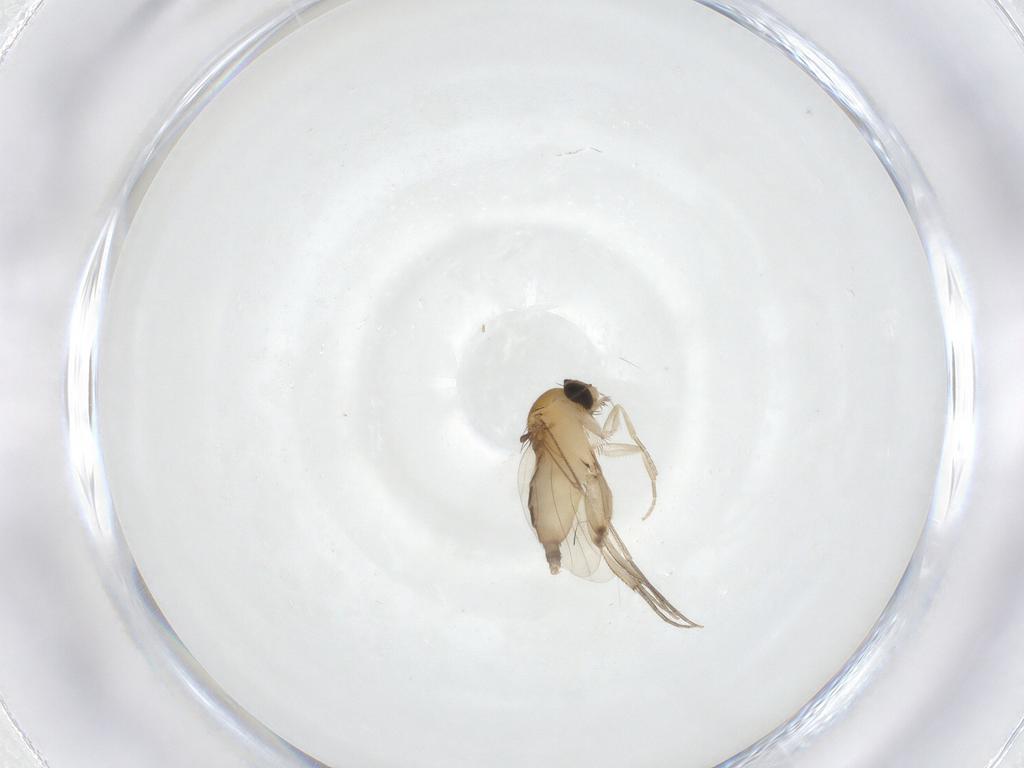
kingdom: Animalia
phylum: Arthropoda
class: Insecta
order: Diptera
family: Phoridae
